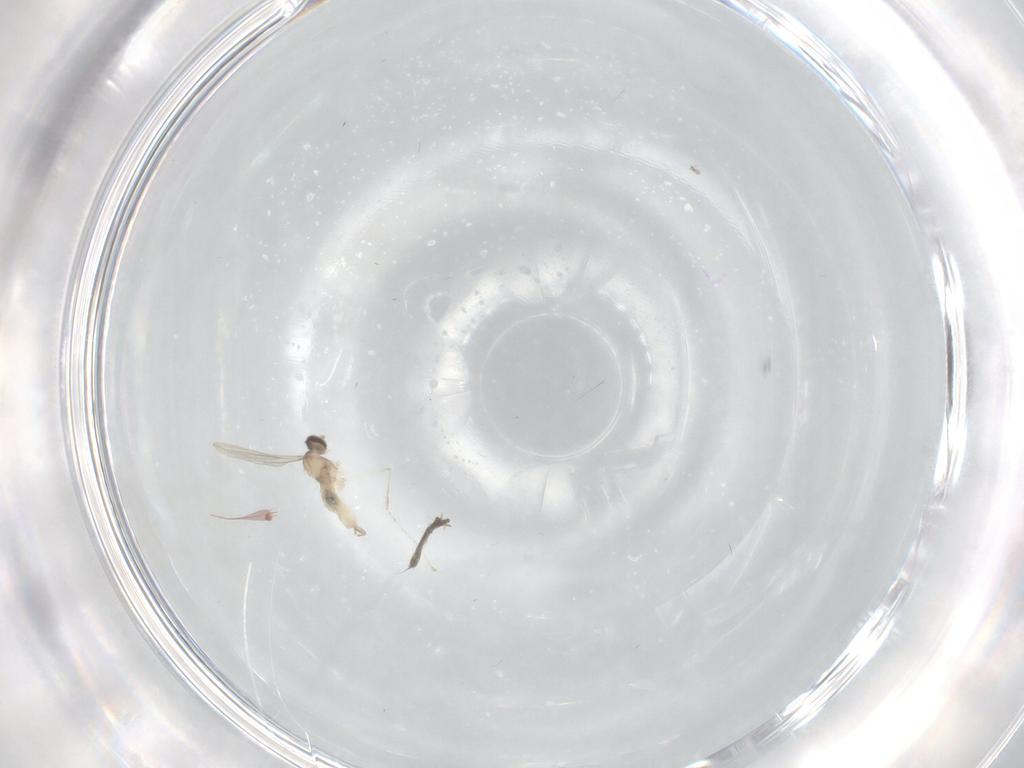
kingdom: Animalia
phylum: Arthropoda
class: Insecta
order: Diptera
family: Cecidomyiidae
